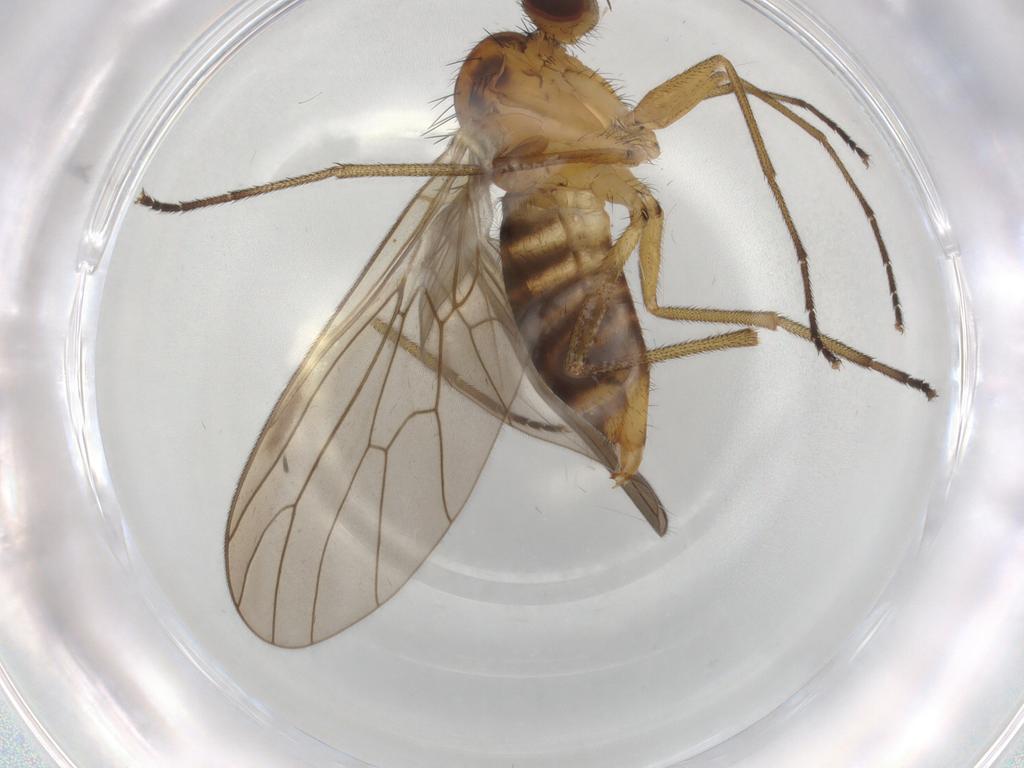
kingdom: Animalia
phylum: Arthropoda
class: Insecta
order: Diptera
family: Brachystomatidae
